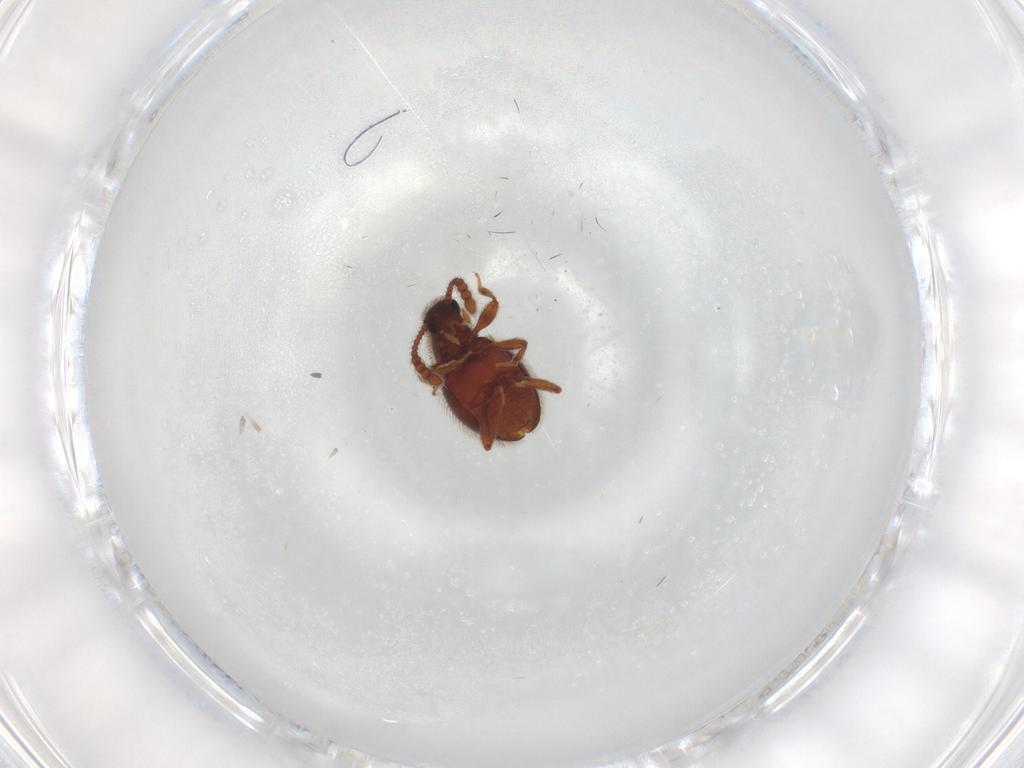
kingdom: Animalia
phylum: Arthropoda
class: Insecta
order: Coleoptera
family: Staphylinidae
